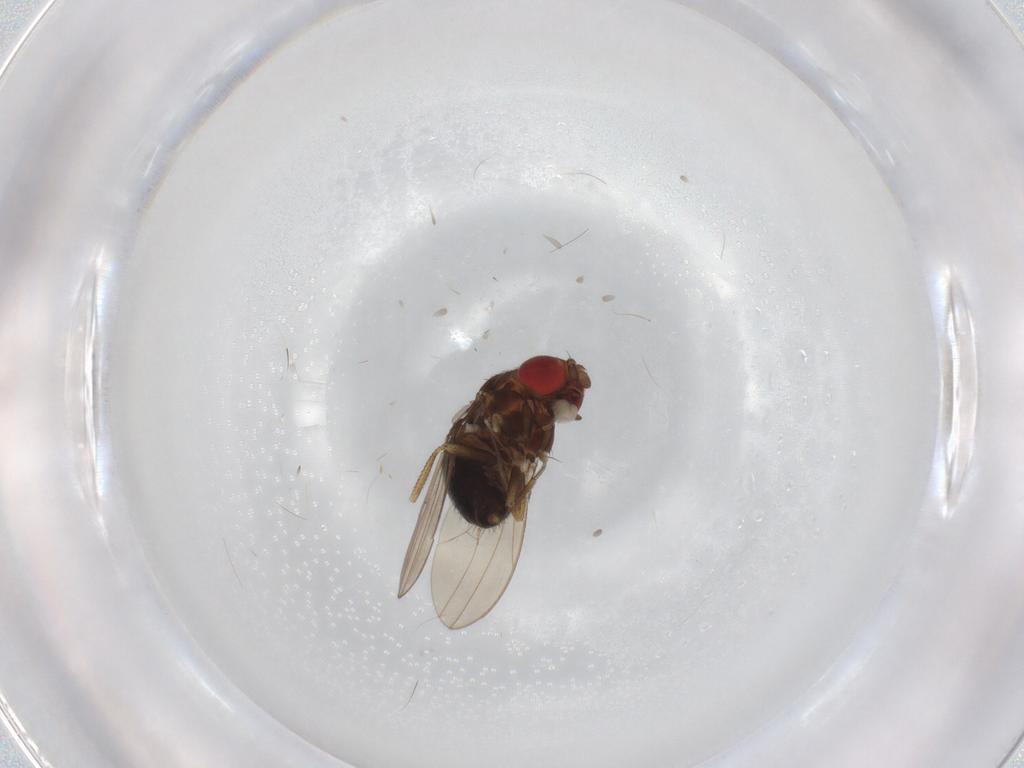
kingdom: Animalia
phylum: Arthropoda
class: Insecta
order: Diptera
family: Drosophilidae
